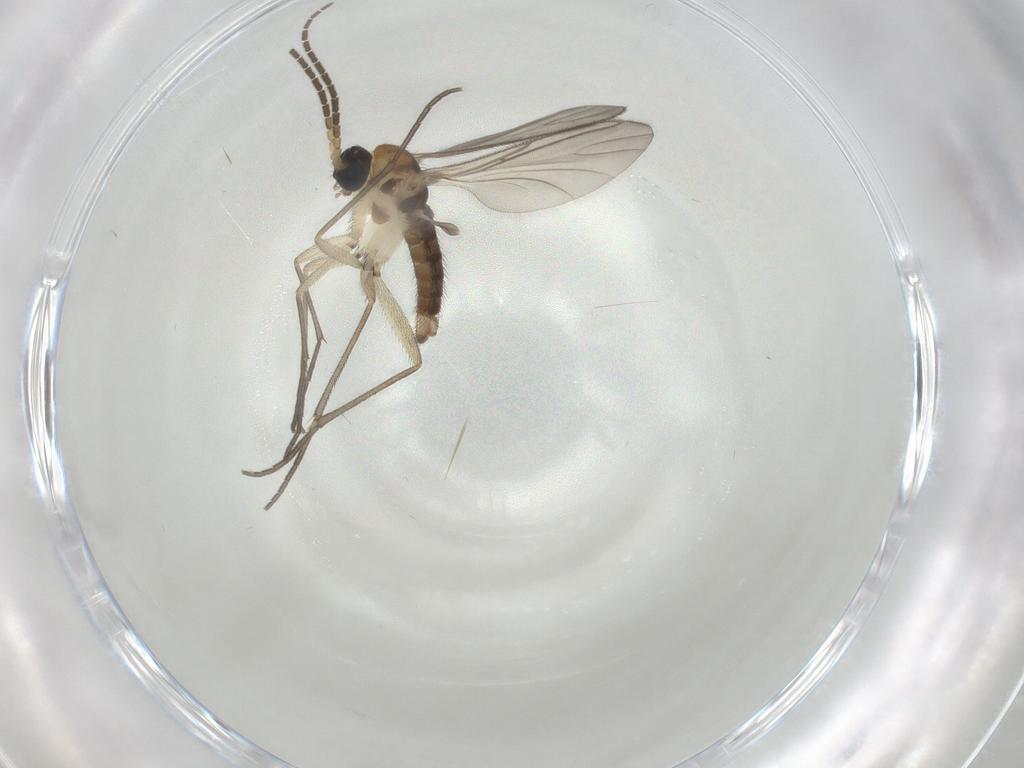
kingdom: Animalia
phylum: Arthropoda
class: Insecta
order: Diptera
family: Sciaridae
